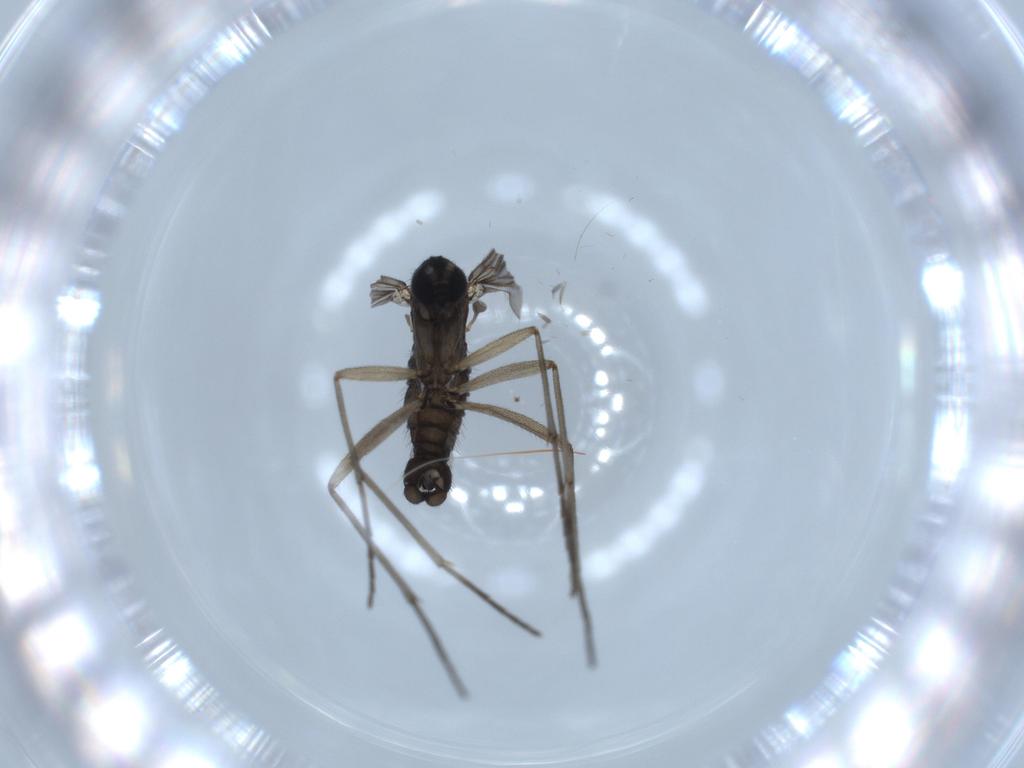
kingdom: Animalia
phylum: Arthropoda
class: Insecta
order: Diptera
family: Sciaridae
